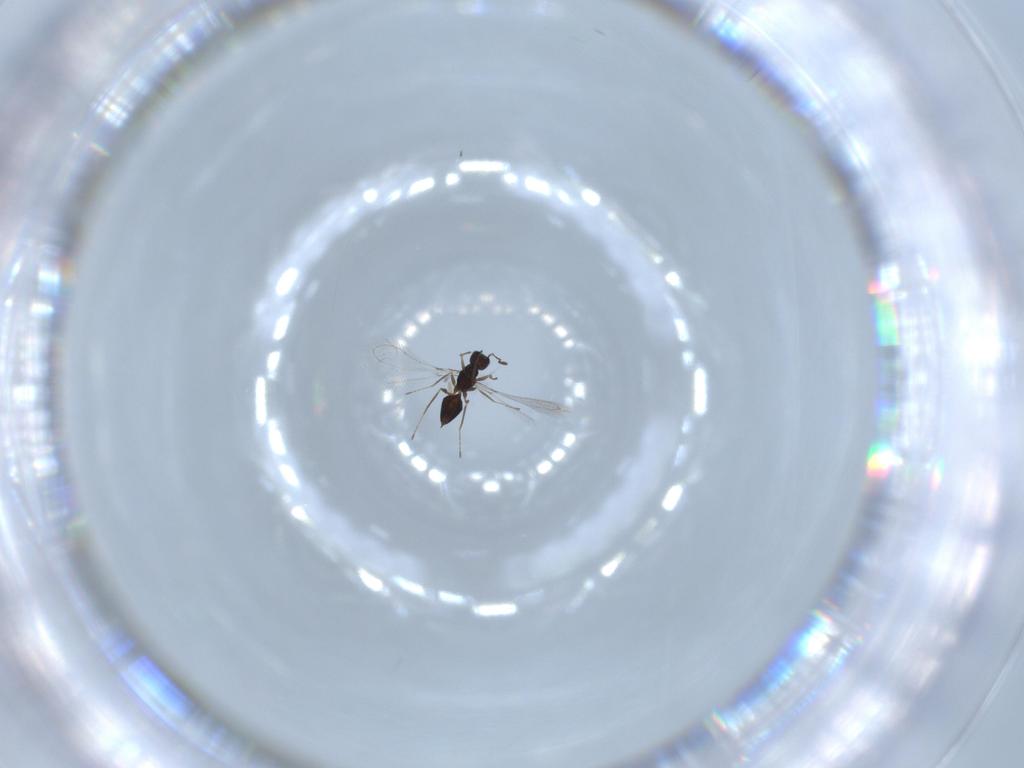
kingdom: Animalia
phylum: Arthropoda
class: Insecta
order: Hymenoptera
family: Mymaridae
